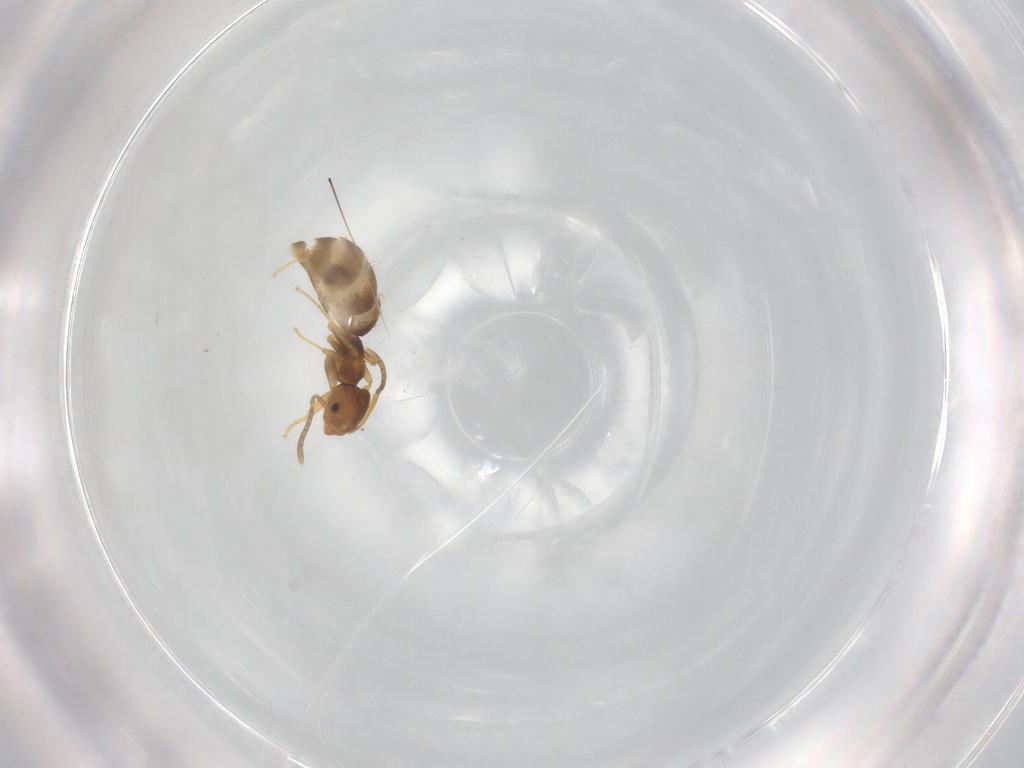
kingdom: Animalia
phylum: Arthropoda
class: Insecta
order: Hymenoptera
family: Formicidae
